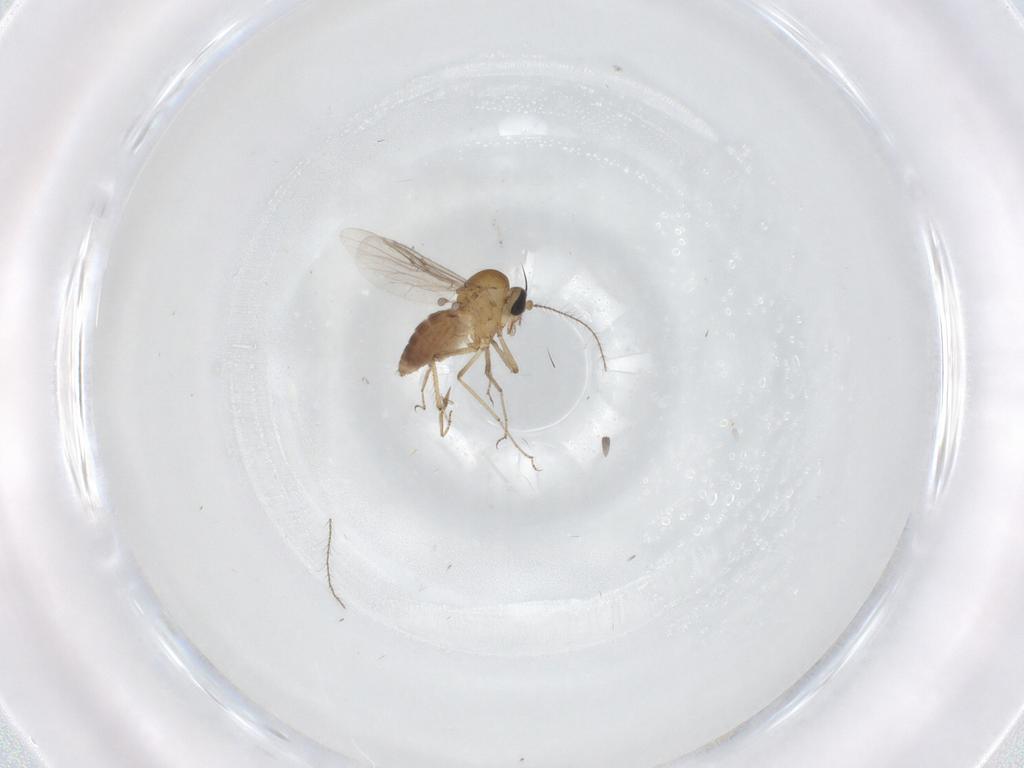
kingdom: Animalia
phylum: Arthropoda
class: Insecta
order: Diptera
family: Ceratopogonidae
